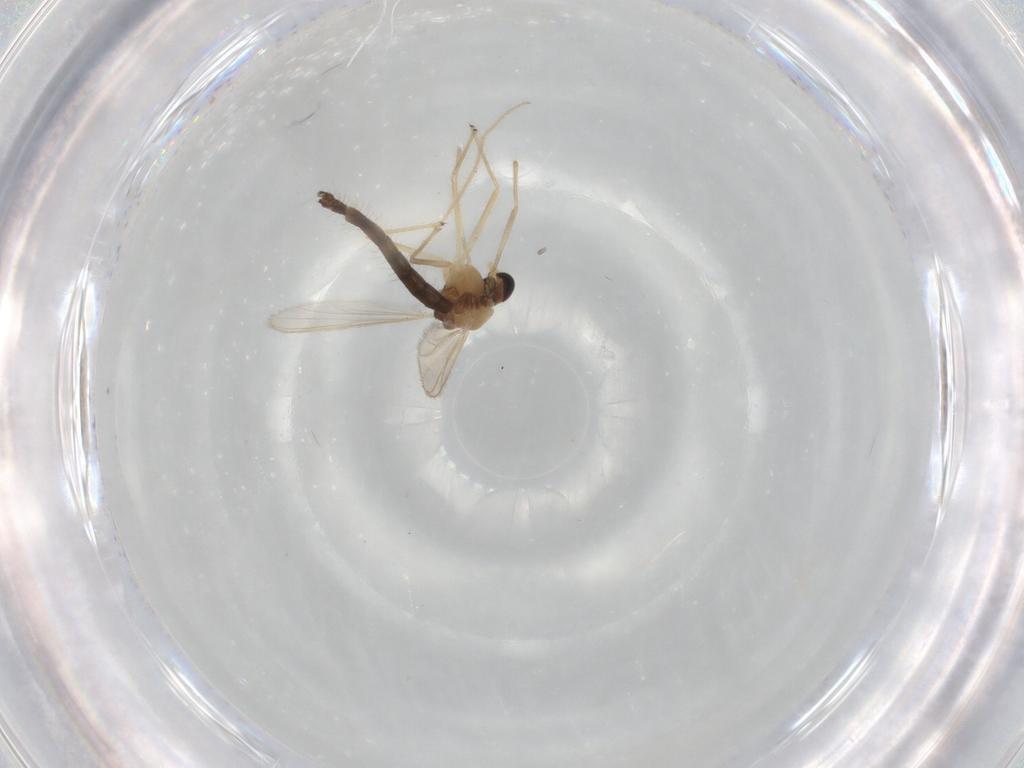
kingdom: Animalia
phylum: Arthropoda
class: Insecta
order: Diptera
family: Chironomidae
